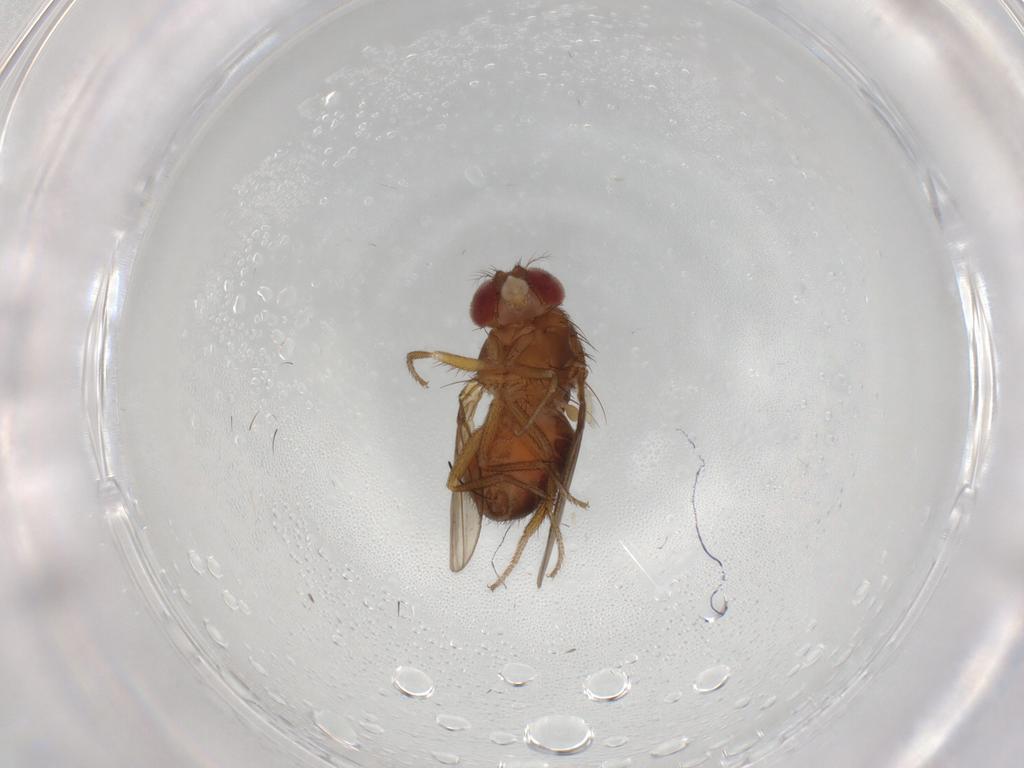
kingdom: Animalia
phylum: Arthropoda
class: Insecta
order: Diptera
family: Drosophilidae
